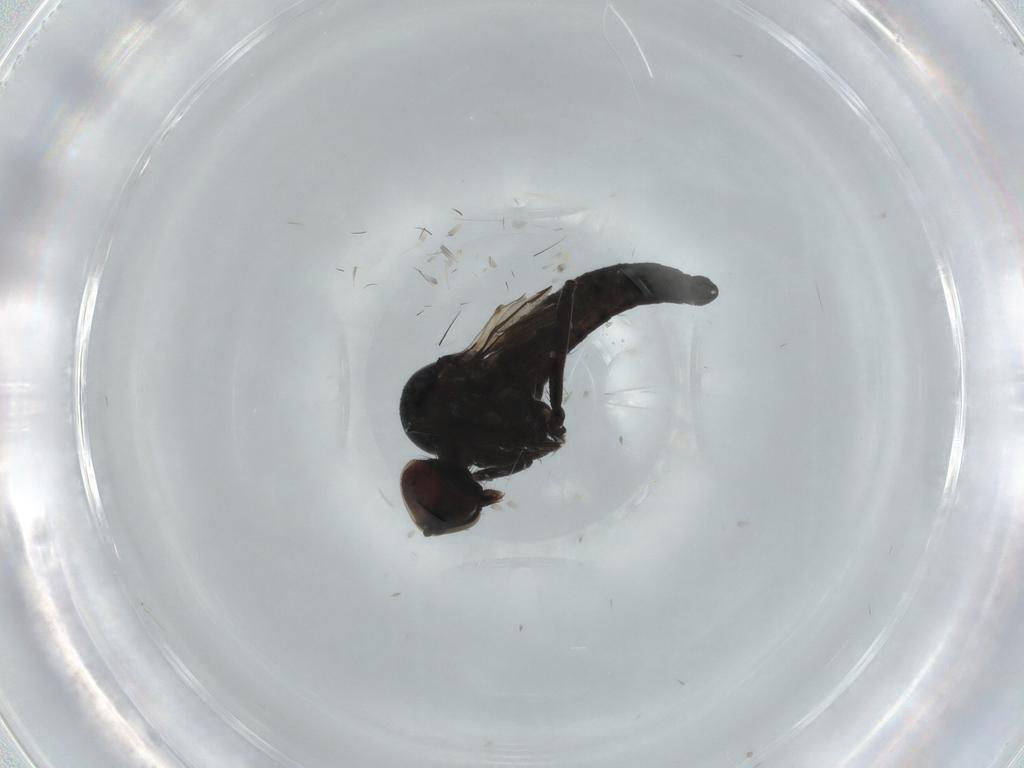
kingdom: Animalia
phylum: Arthropoda
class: Insecta
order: Diptera
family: Hybotidae
